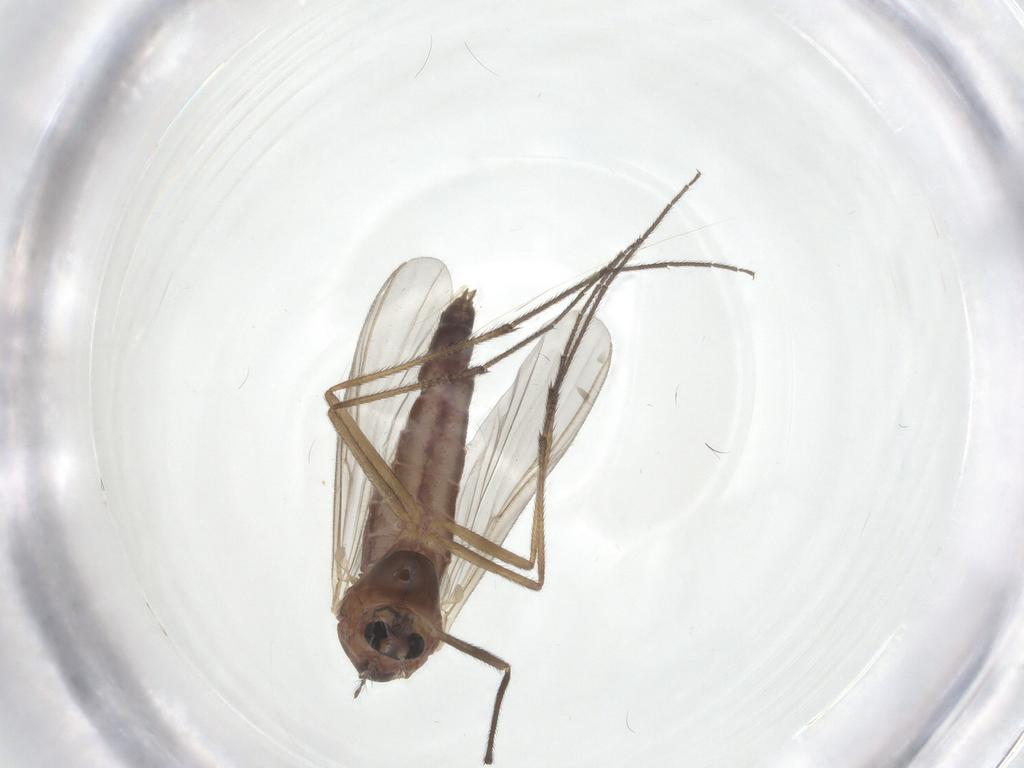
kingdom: Animalia
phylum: Arthropoda
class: Insecta
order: Diptera
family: Chironomidae
